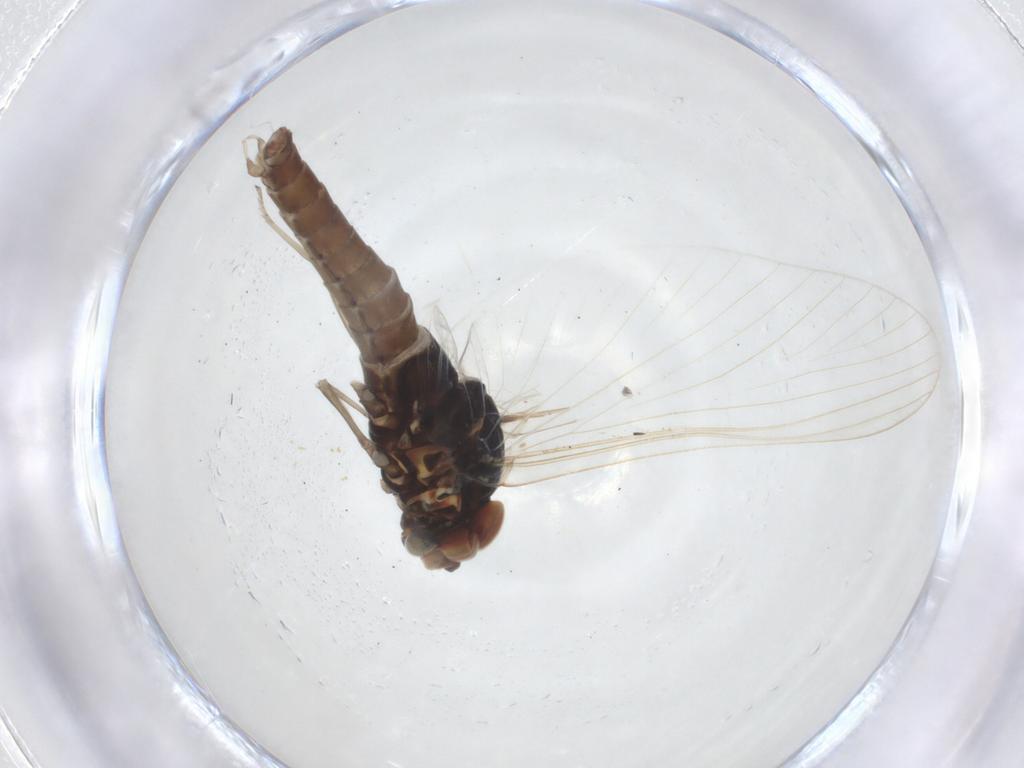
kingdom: Animalia
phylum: Arthropoda
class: Insecta
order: Ephemeroptera
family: Baetidae
